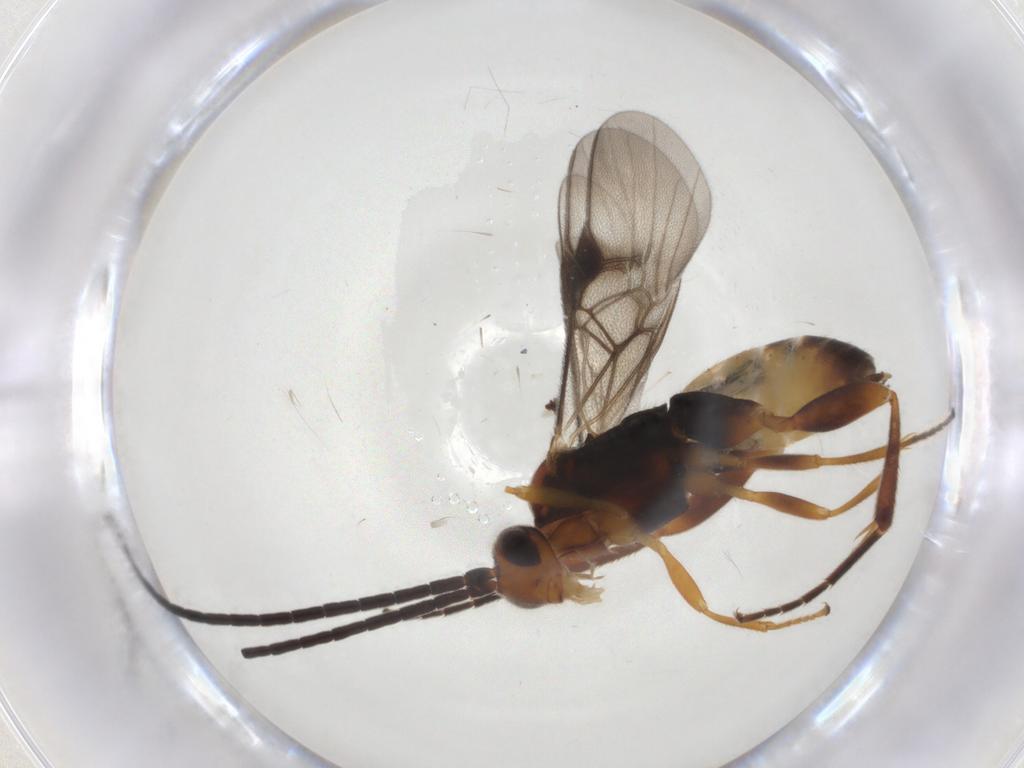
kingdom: Animalia
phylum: Arthropoda
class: Insecta
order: Hymenoptera
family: Braconidae
